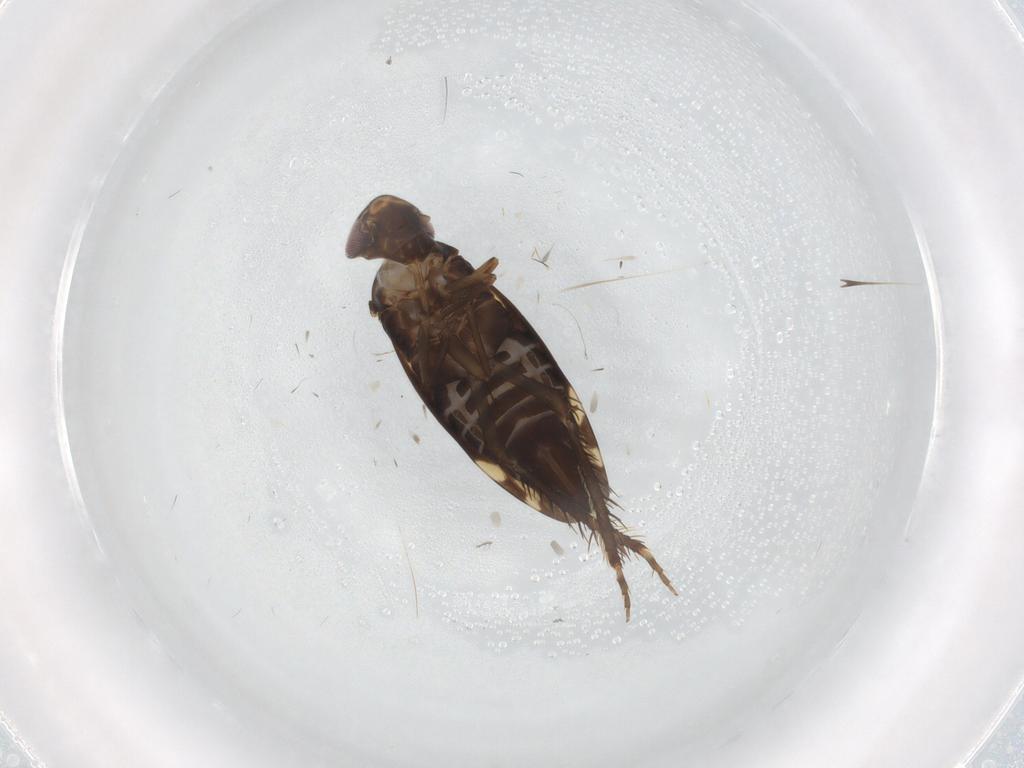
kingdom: Animalia
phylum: Arthropoda
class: Insecta
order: Hemiptera
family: Cicadellidae
